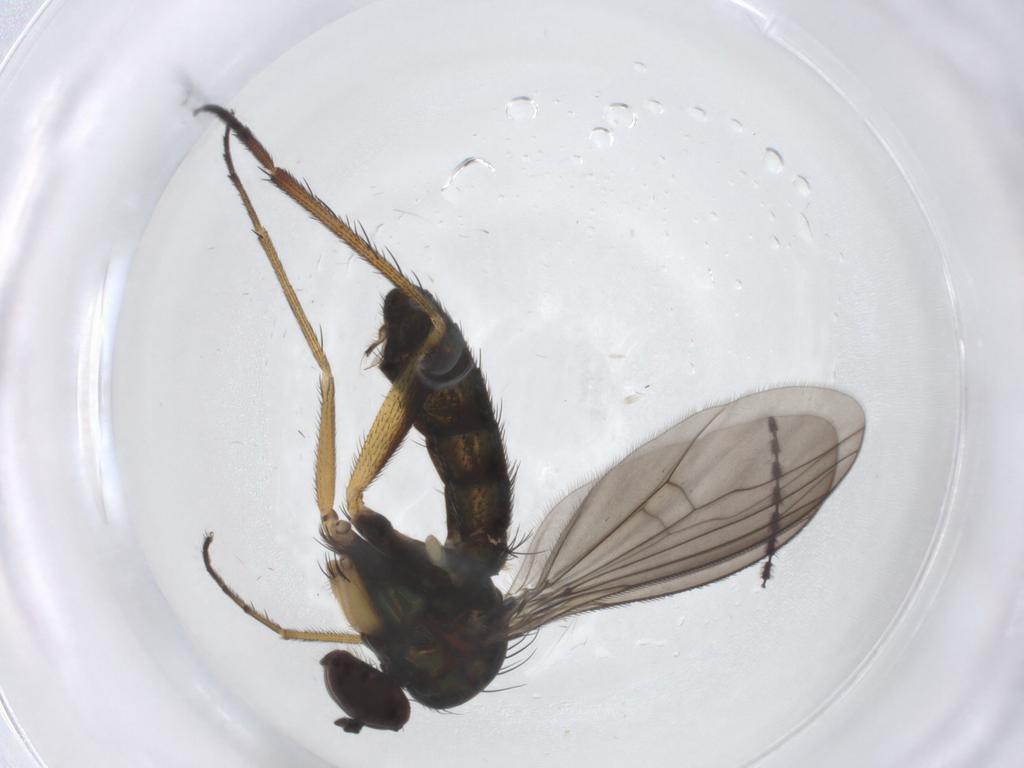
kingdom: Animalia
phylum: Arthropoda
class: Insecta
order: Diptera
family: Dolichopodidae
